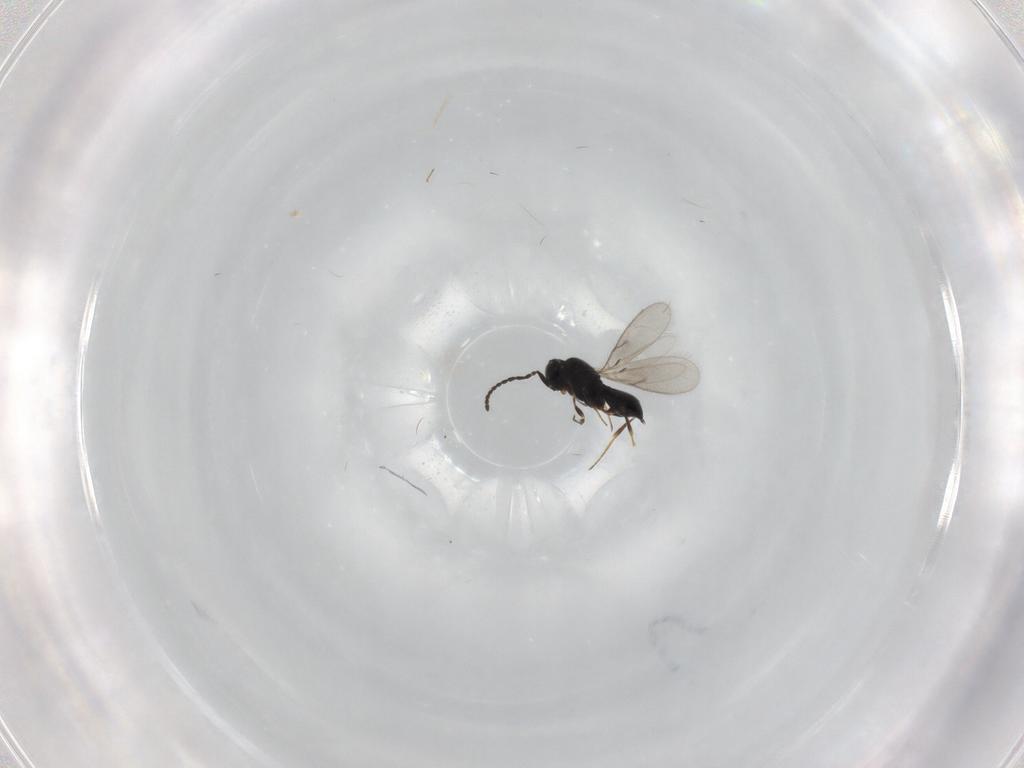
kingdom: Animalia
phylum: Arthropoda
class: Insecta
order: Hymenoptera
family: Scelionidae
